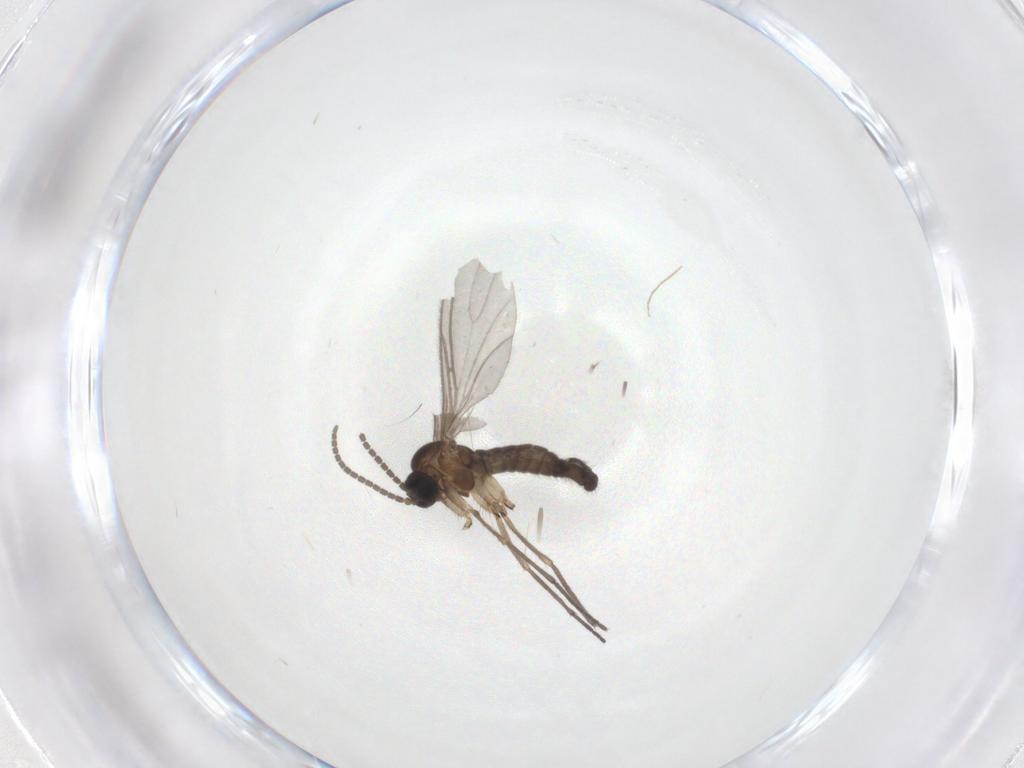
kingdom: Animalia
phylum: Arthropoda
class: Insecta
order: Diptera
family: Sciaridae
